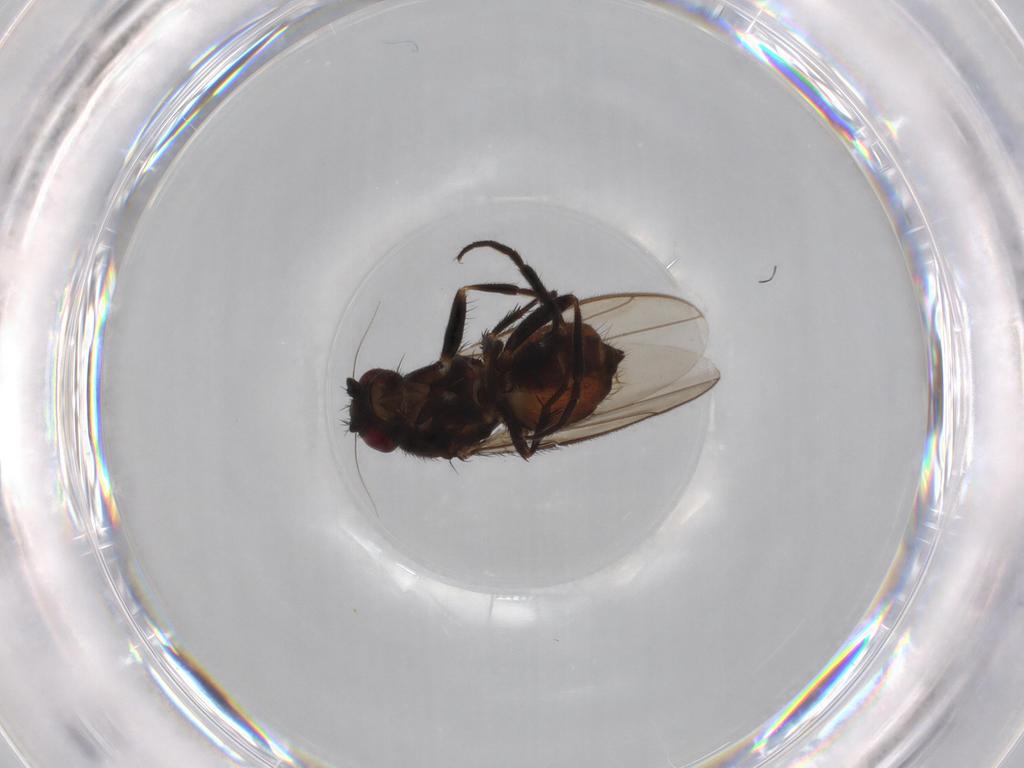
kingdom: Animalia
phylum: Arthropoda
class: Insecta
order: Diptera
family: Sphaeroceridae
